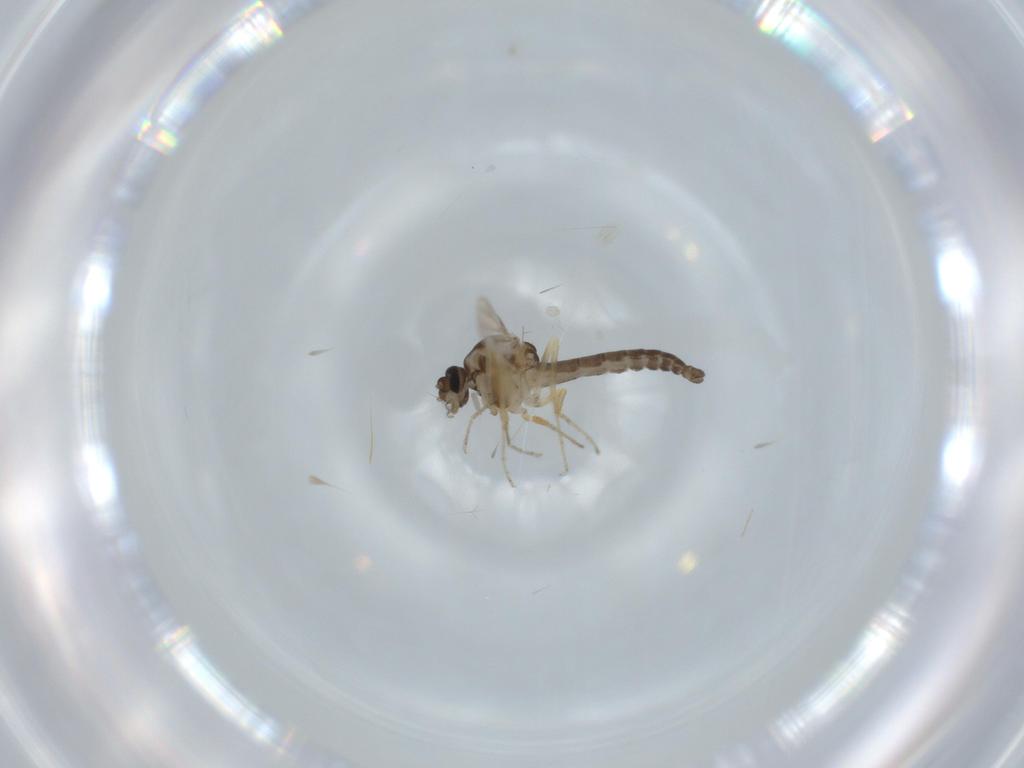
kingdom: Animalia
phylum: Arthropoda
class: Insecta
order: Diptera
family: Ceratopogonidae
